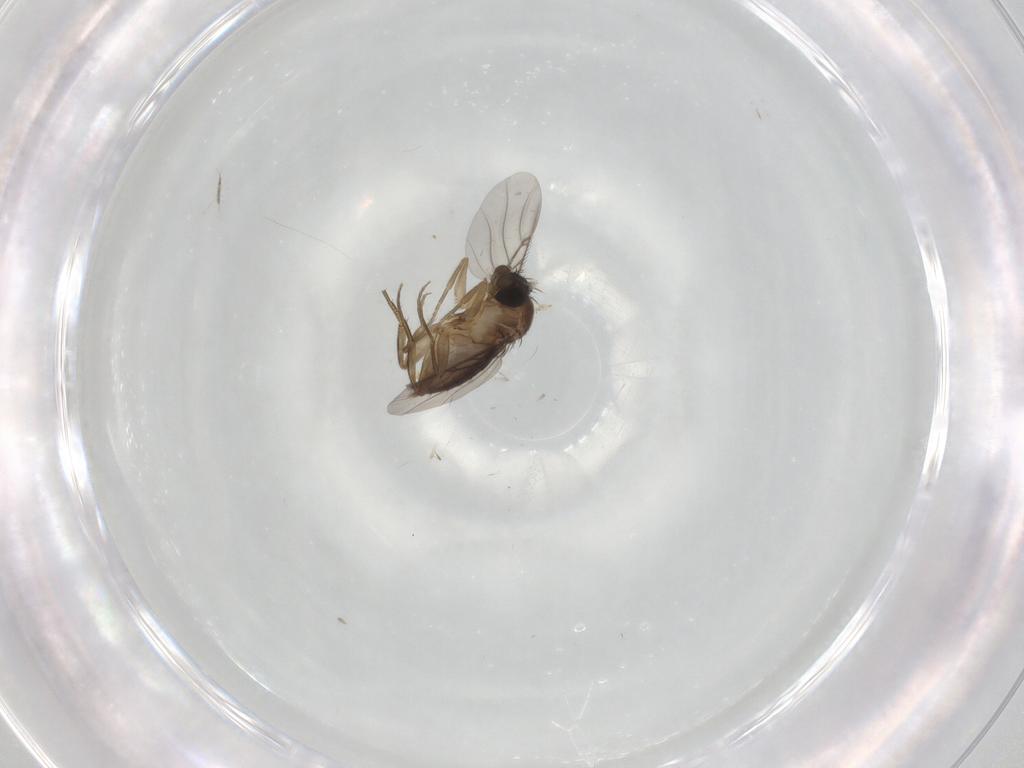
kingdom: Animalia
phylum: Arthropoda
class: Insecta
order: Diptera
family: Phoridae
